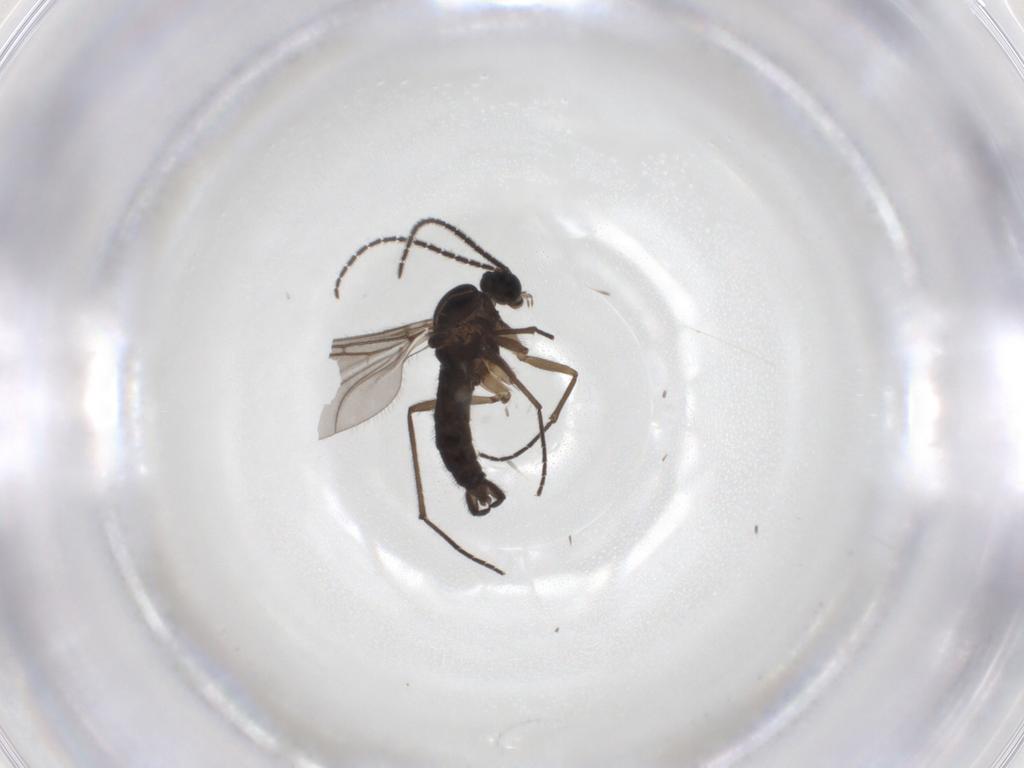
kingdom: Animalia
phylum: Arthropoda
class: Insecta
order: Diptera
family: Sciaridae
